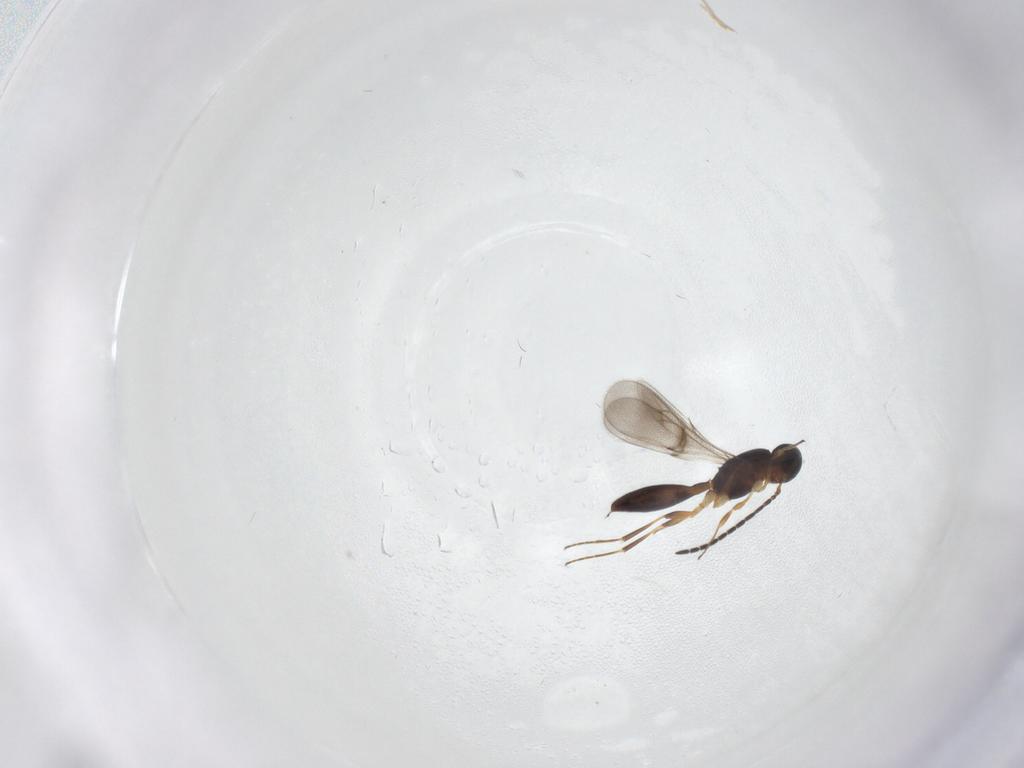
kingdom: Animalia
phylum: Arthropoda
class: Insecta
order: Hymenoptera
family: Scelionidae
